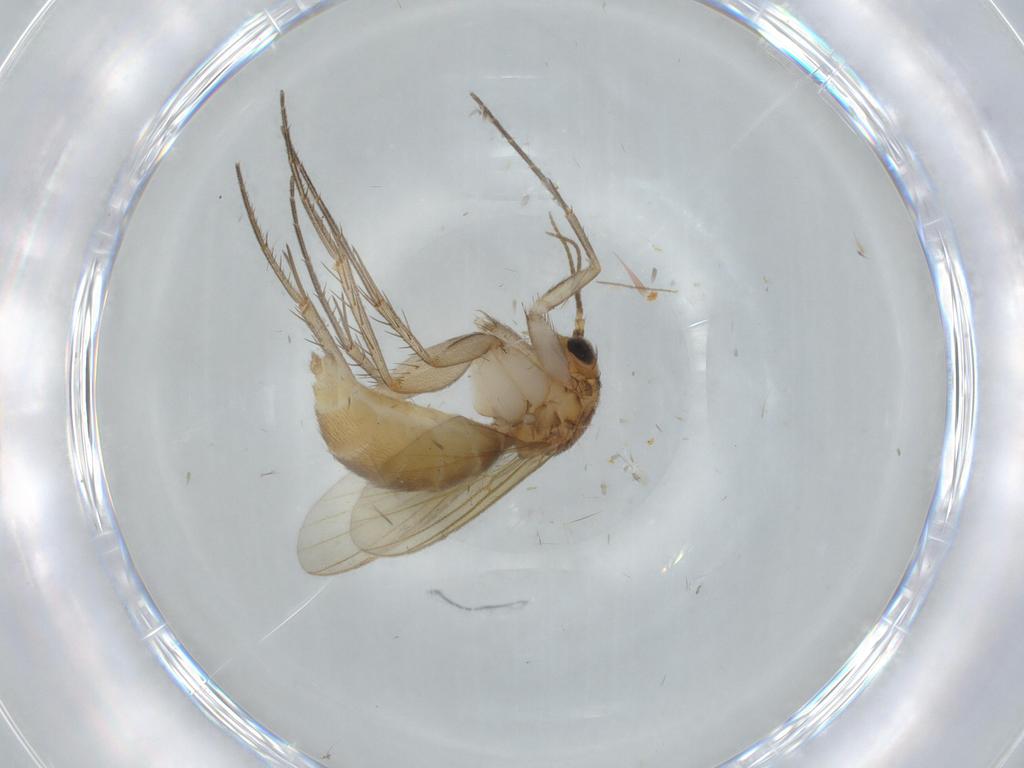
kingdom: Animalia
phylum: Arthropoda
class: Insecta
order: Diptera
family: Mycetophilidae
